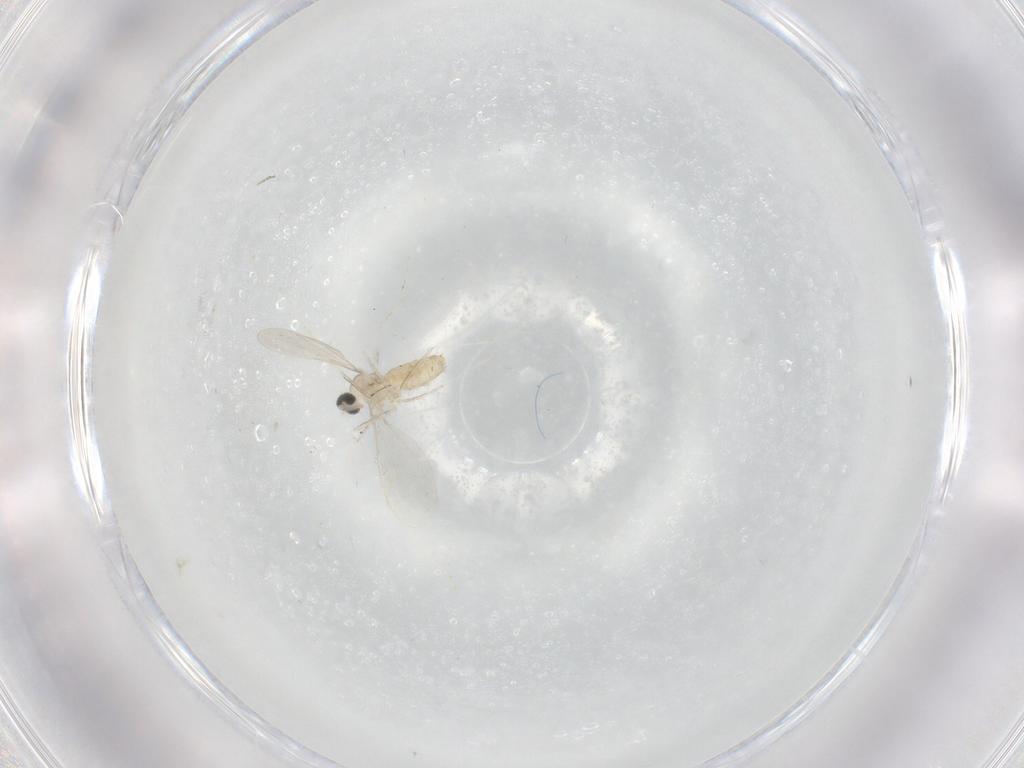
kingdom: Animalia
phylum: Arthropoda
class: Insecta
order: Diptera
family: Cecidomyiidae
